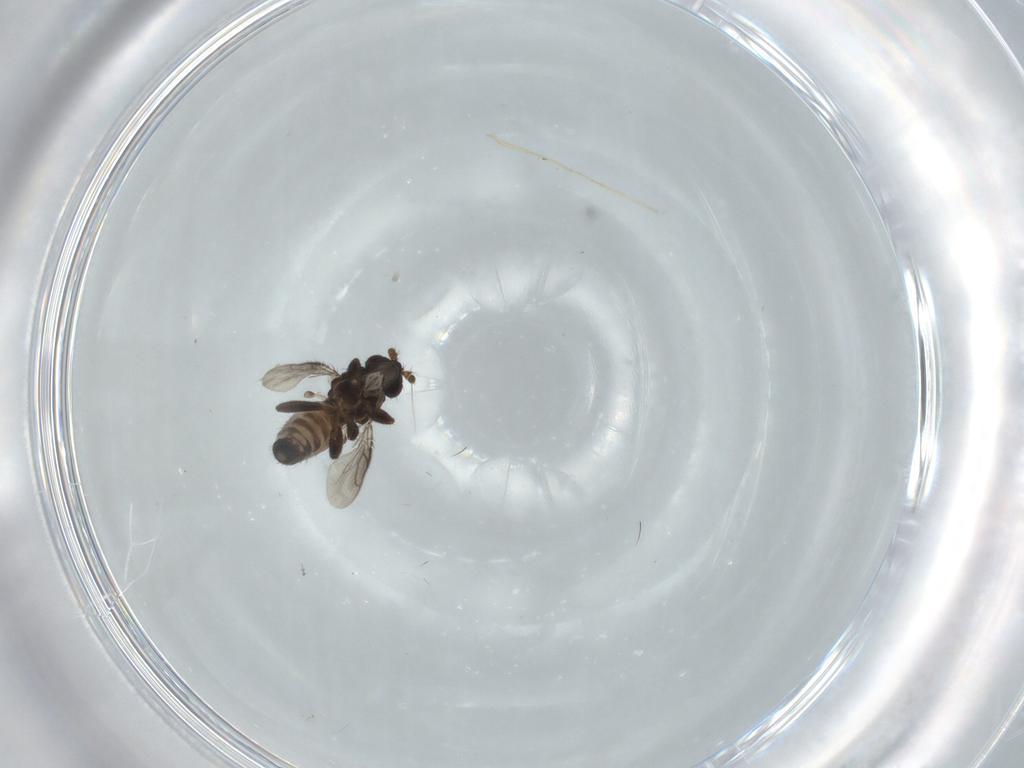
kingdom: Animalia
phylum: Arthropoda
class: Insecta
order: Diptera
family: Sphaeroceridae
